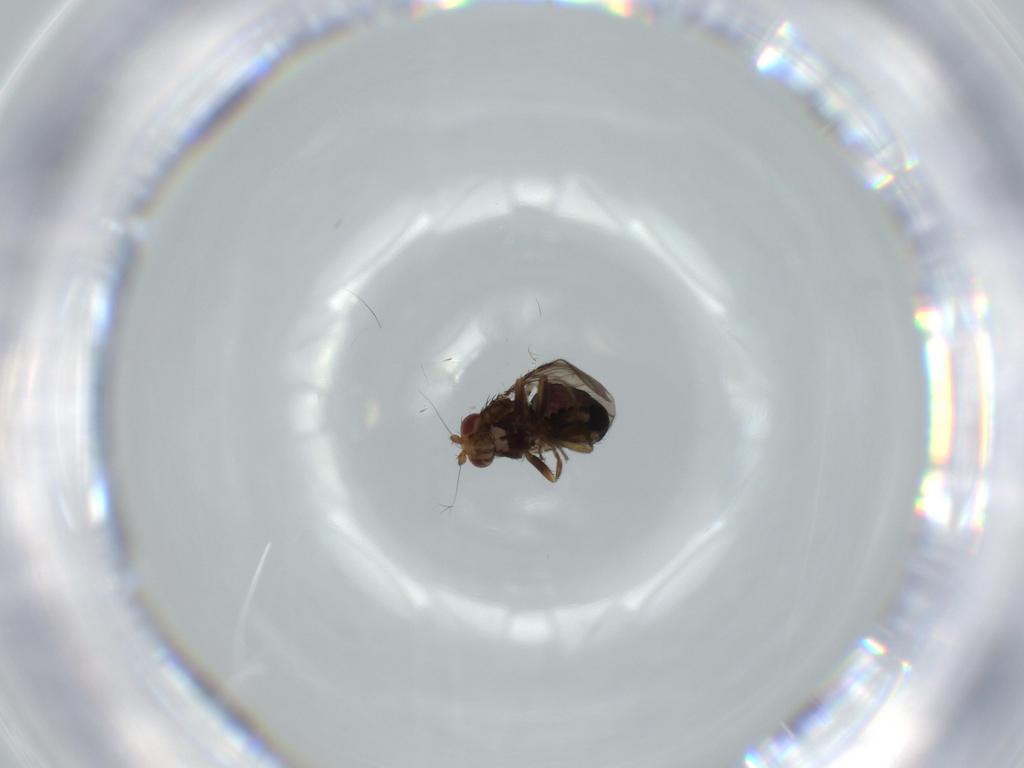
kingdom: Animalia
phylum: Arthropoda
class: Insecta
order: Diptera
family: Sphaeroceridae
